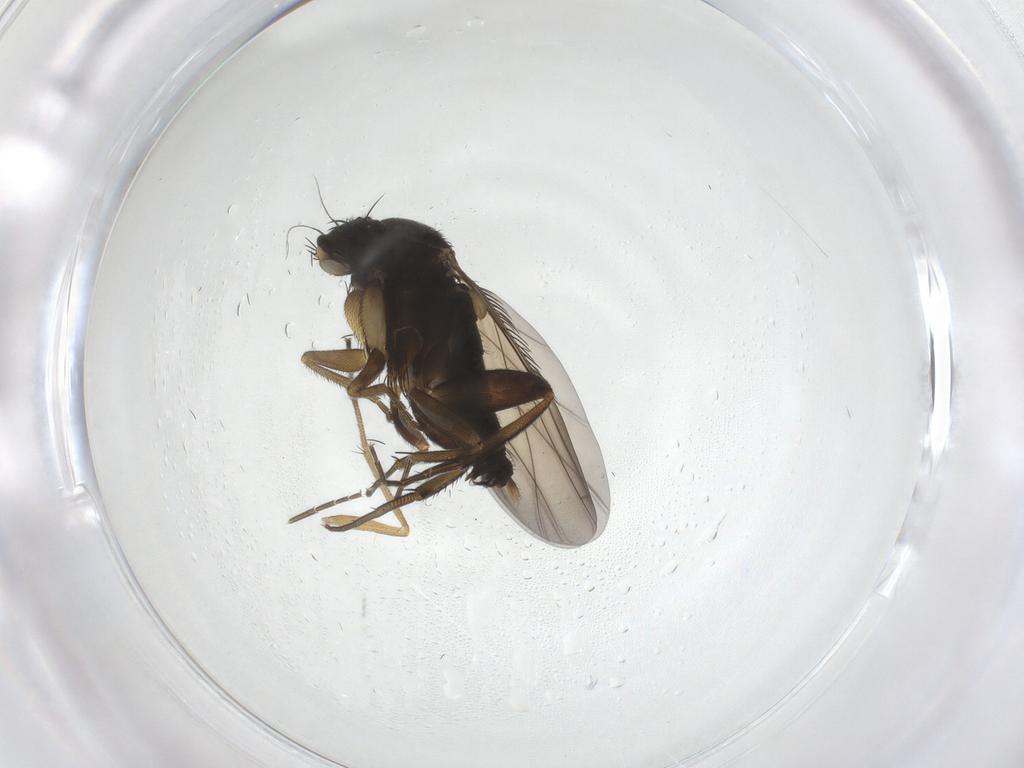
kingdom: Animalia
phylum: Arthropoda
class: Insecta
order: Diptera
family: Phoridae
